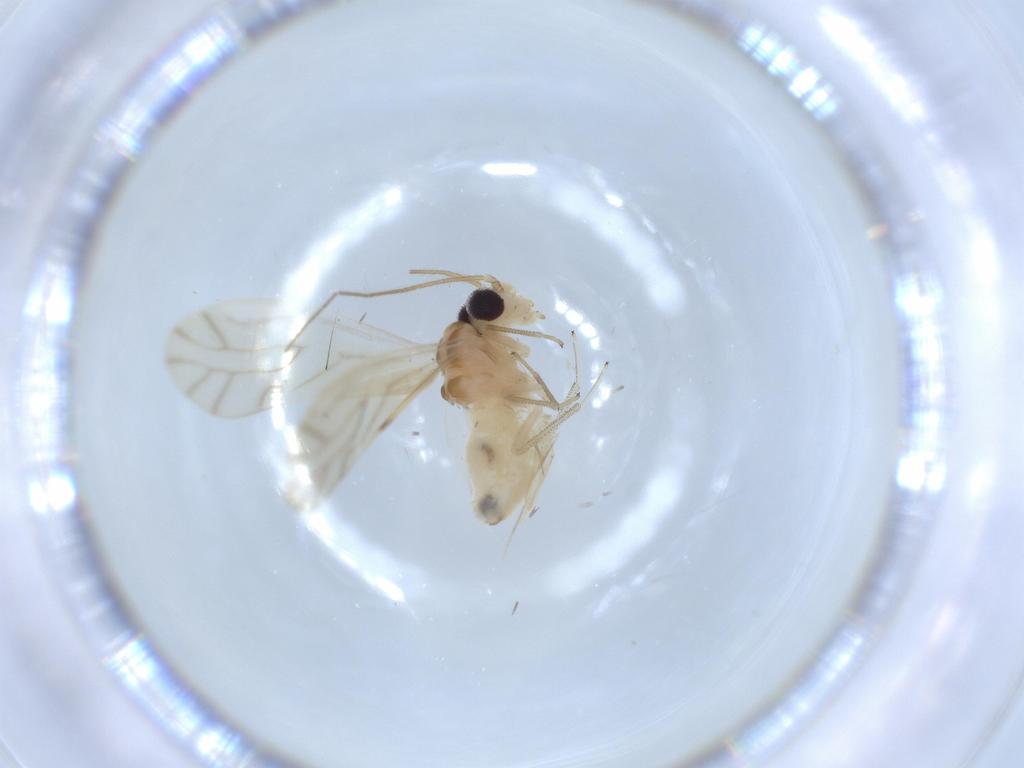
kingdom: Animalia
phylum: Arthropoda
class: Insecta
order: Psocodea
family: Caeciliusidae
